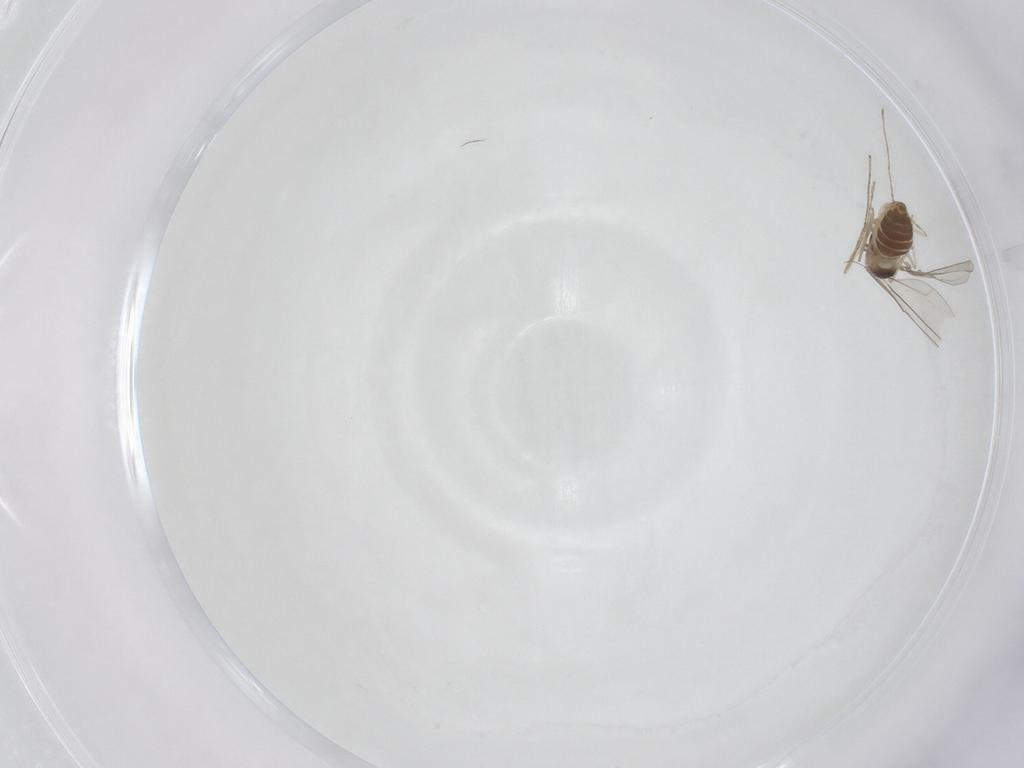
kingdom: Animalia
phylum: Arthropoda
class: Insecta
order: Diptera
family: Cecidomyiidae
